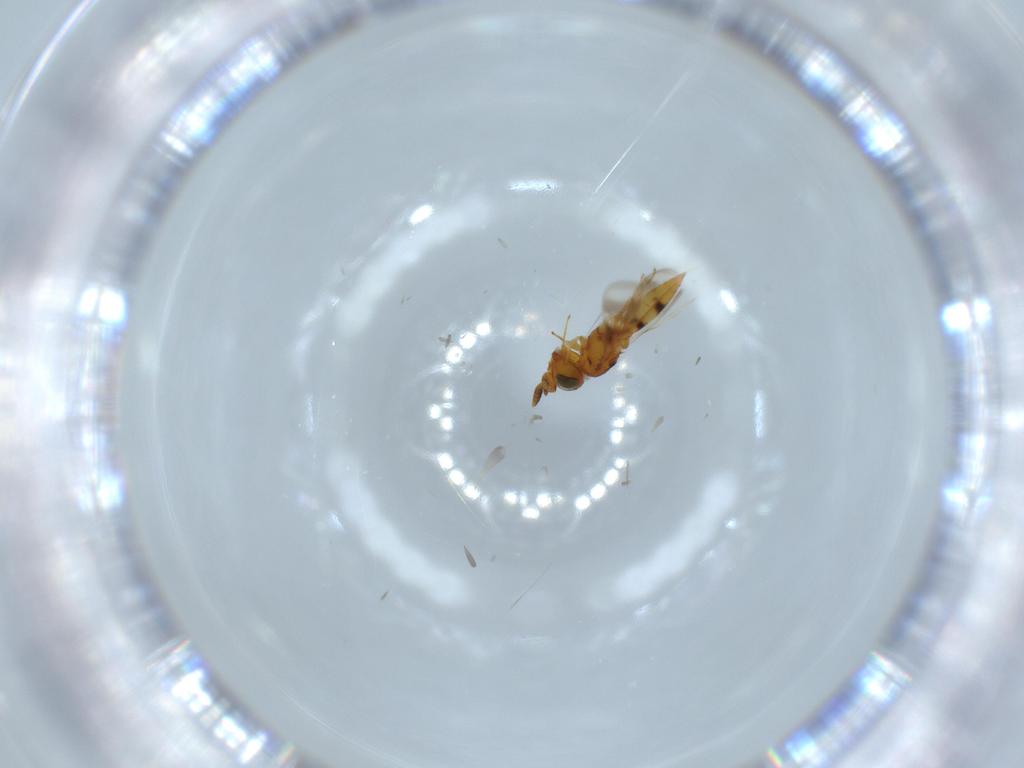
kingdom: Animalia
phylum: Arthropoda
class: Insecta
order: Hymenoptera
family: Scelionidae
